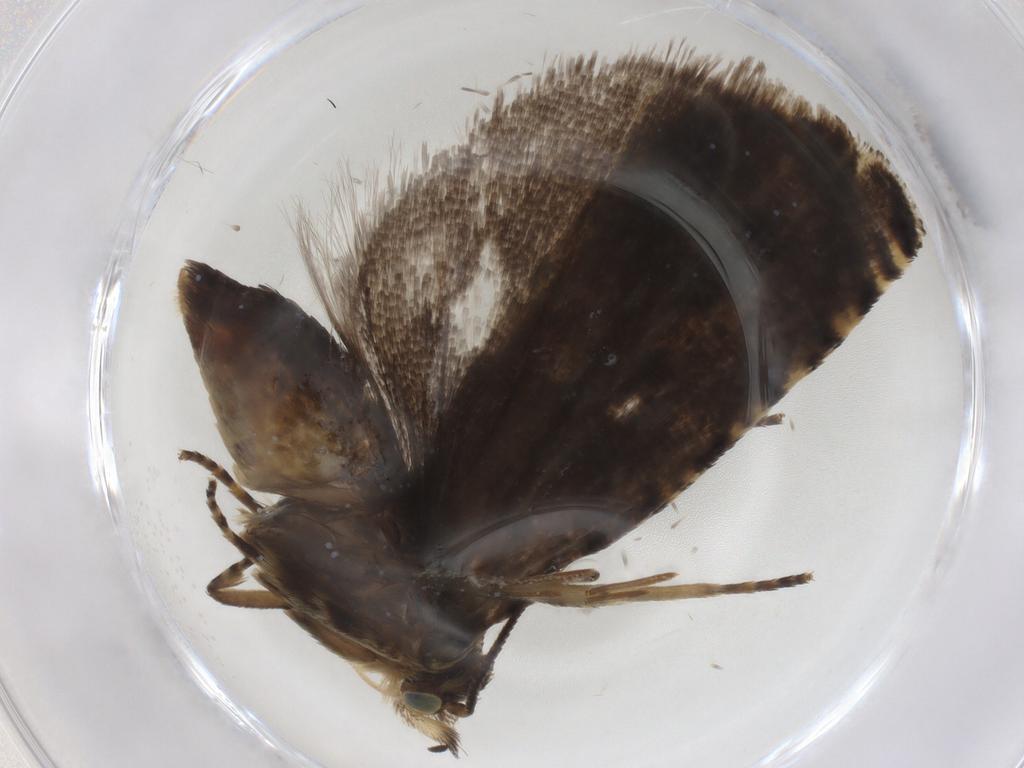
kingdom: Animalia
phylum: Arthropoda
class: Insecta
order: Lepidoptera
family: Tortricidae
